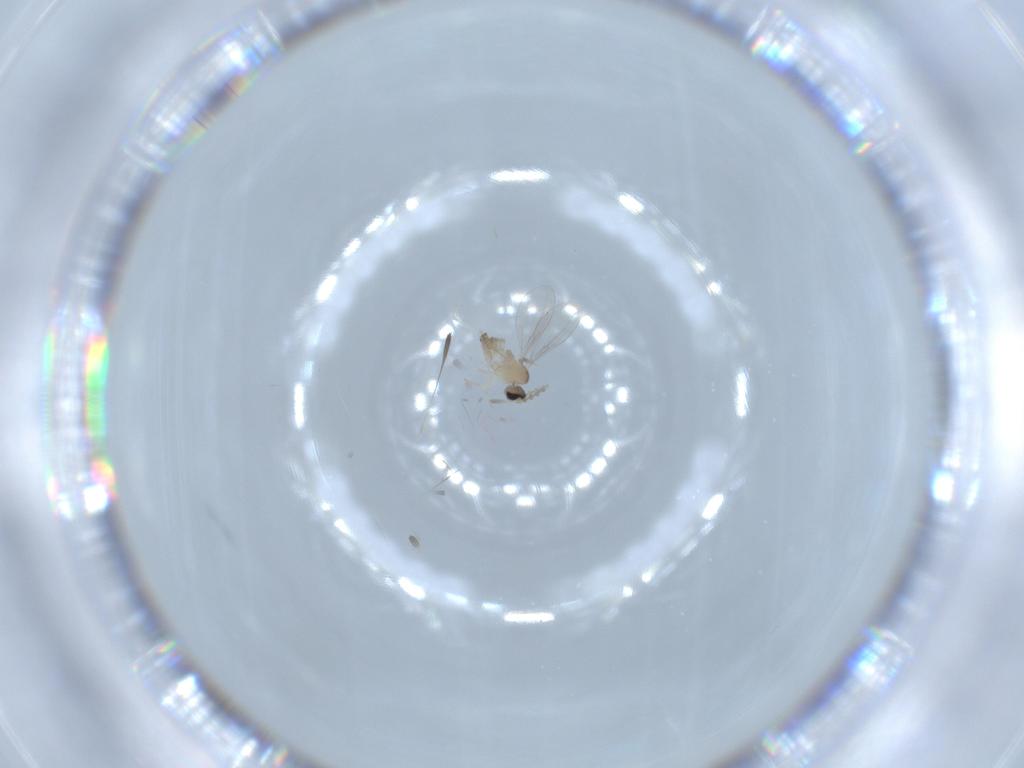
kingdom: Animalia
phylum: Arthropoda
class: Insecta
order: Diptera
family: Cecidomyiidae
